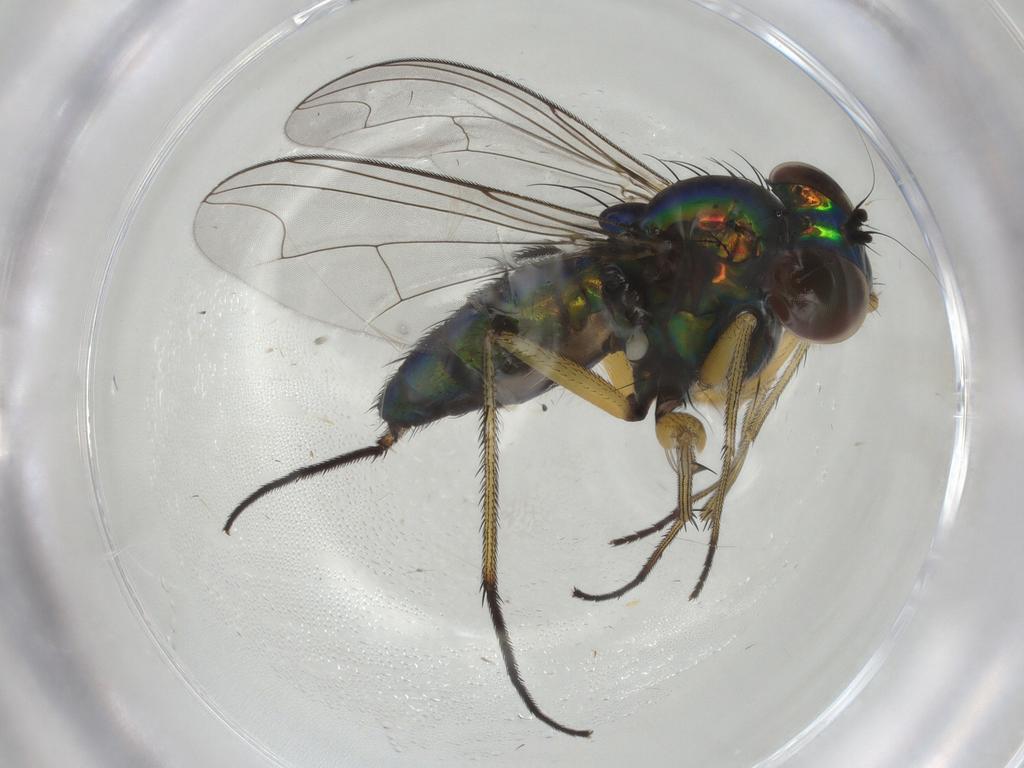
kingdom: Animalia
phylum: Arthropoda
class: Insecta
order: Diptera
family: Dolichopodidae
